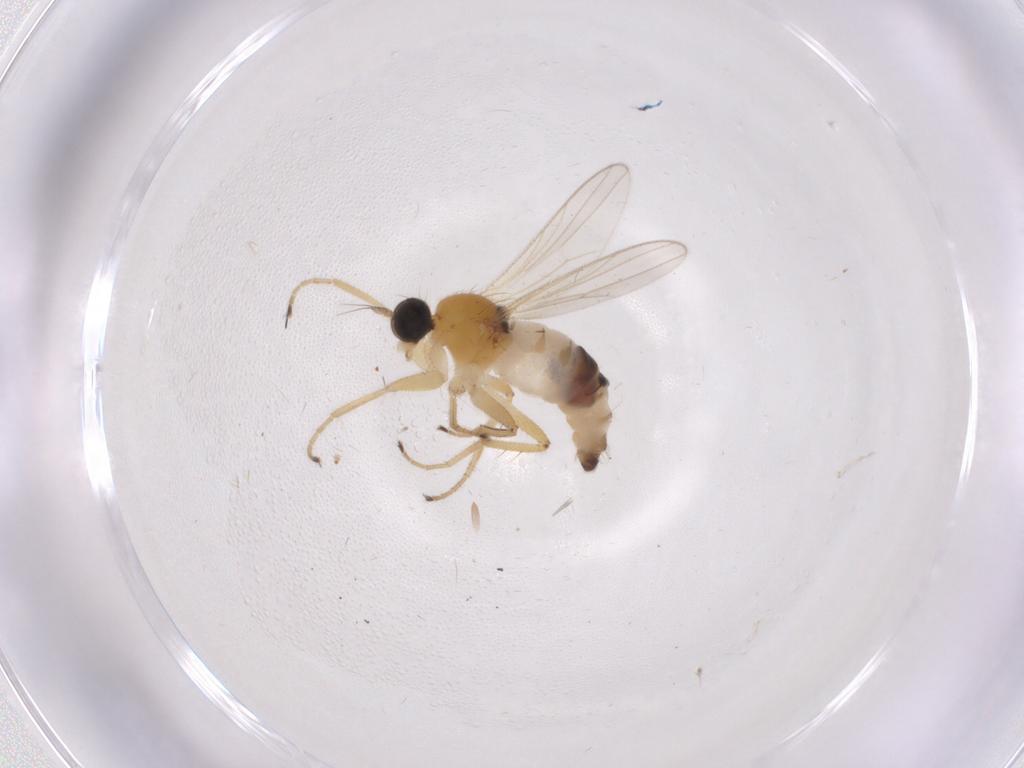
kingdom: Animalia
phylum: Arthropoda
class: Insecta
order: Diptera
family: Hybotidae
